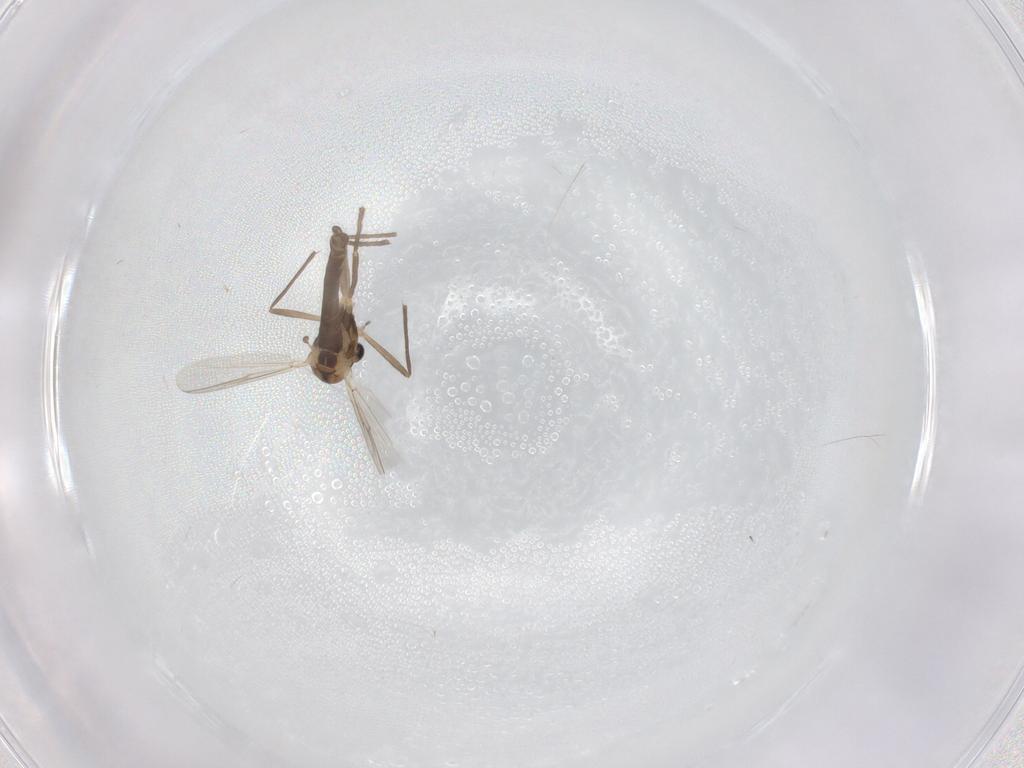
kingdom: Animalia
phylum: Arthropoda
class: Insecta
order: Diptera
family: Chironomidae
